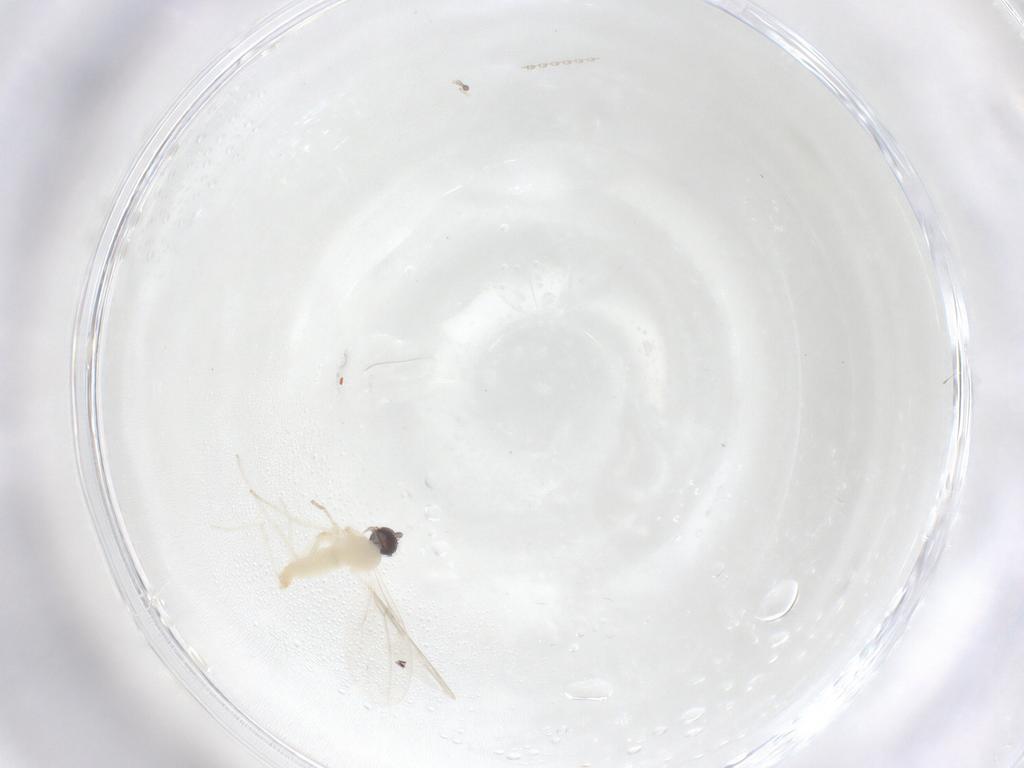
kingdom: Animalia
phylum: Arthropoda
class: Insecta
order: Diptera
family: Cecidomyiidae
